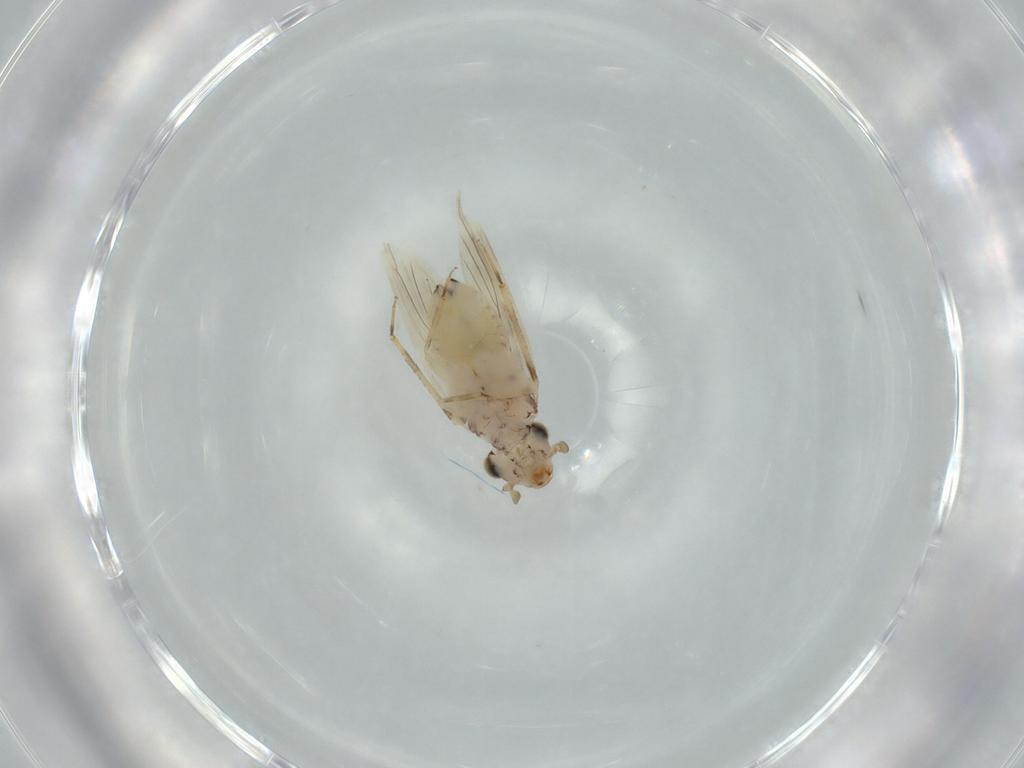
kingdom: Animalia
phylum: Arthropoda
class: Insecta
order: Psocodea
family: Lepidopsocidae
